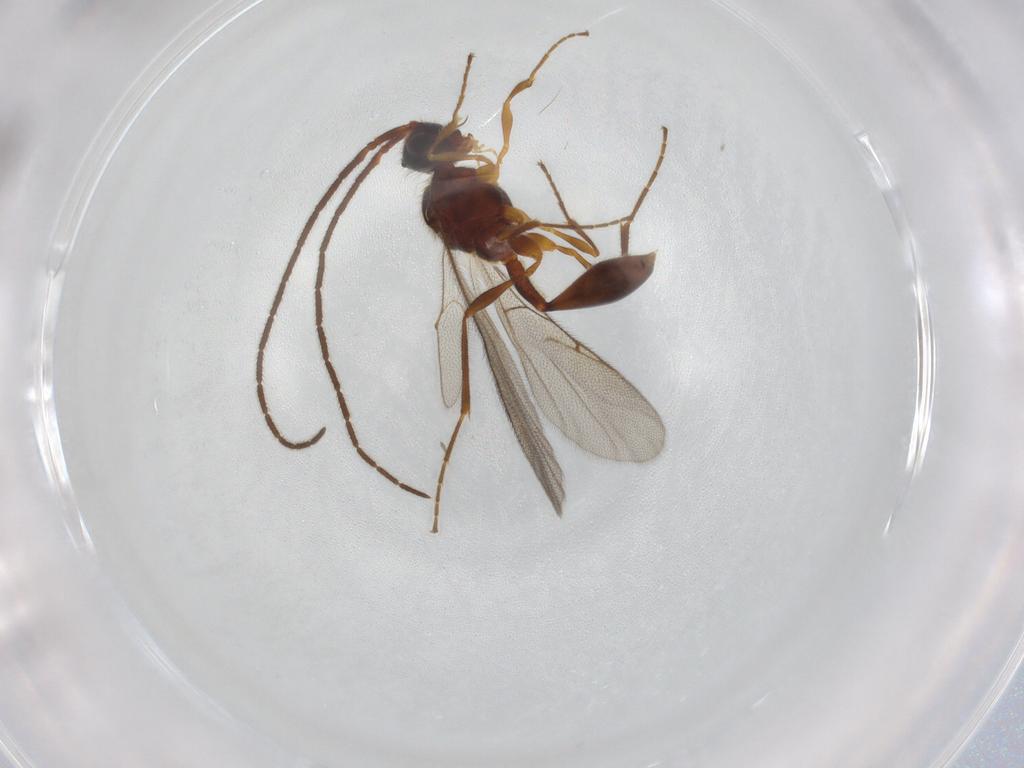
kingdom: Animalia
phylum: Arthropoda
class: Insecta
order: Hymenoptera
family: Diapriidae
